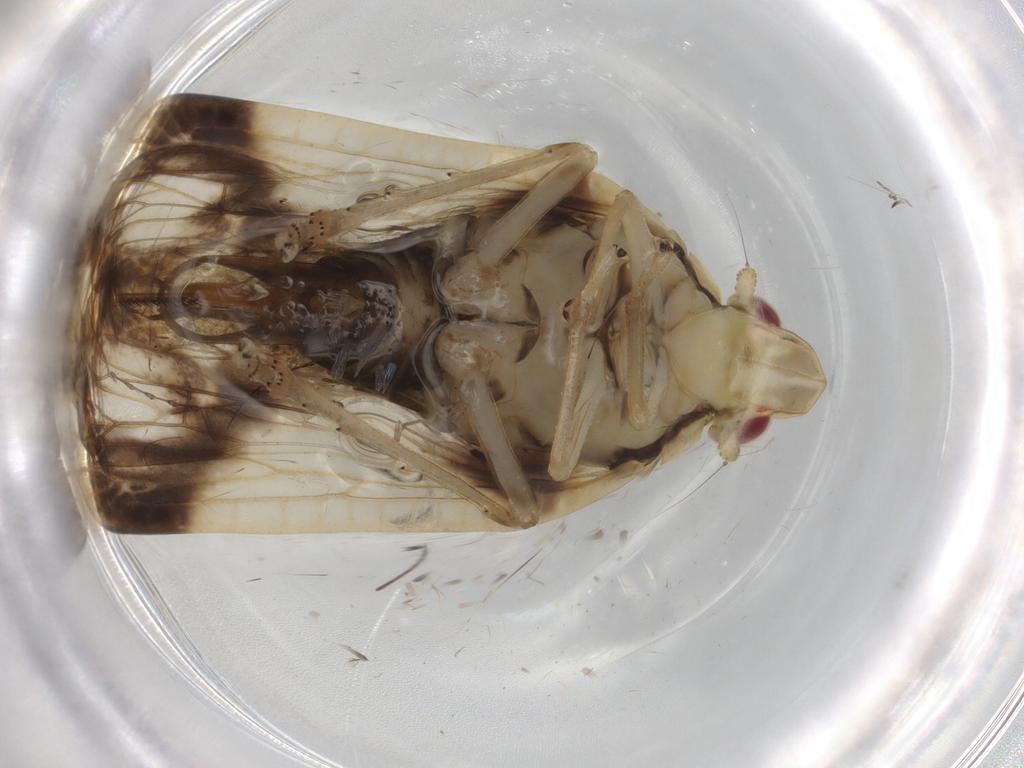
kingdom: Animalia
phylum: Arthropoda
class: Insecta
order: Hemiptera
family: Tropiduchidae
